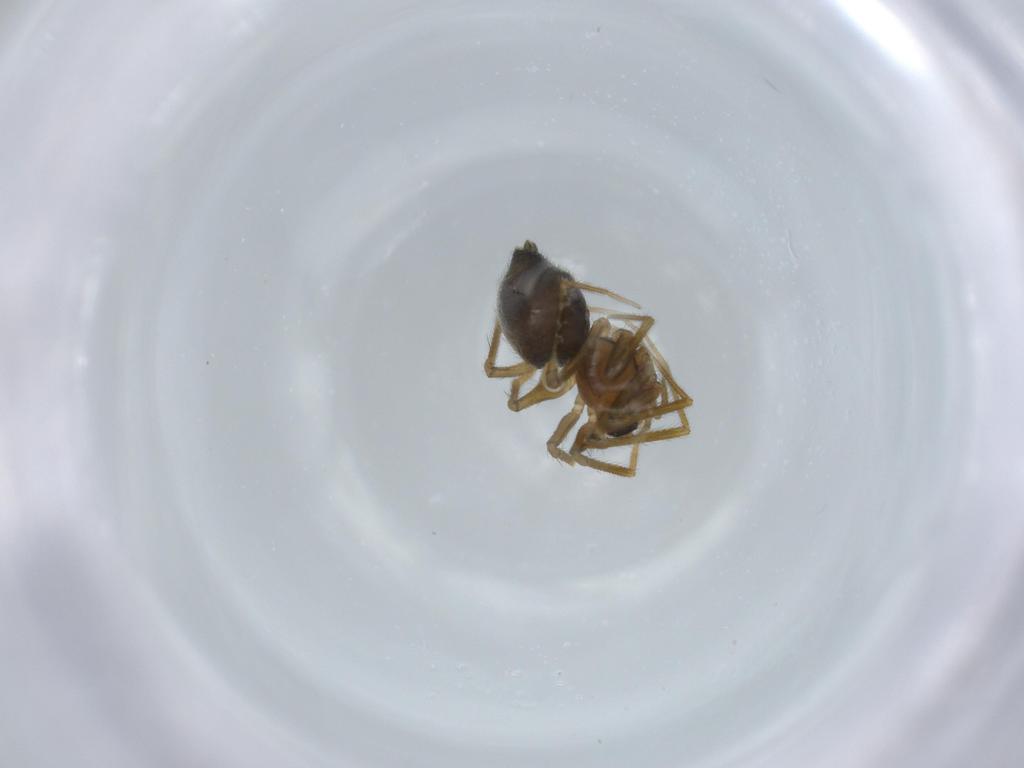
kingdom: Animalia
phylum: Arthropoda
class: Arachnida
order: Araneae
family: Linyphiidae
